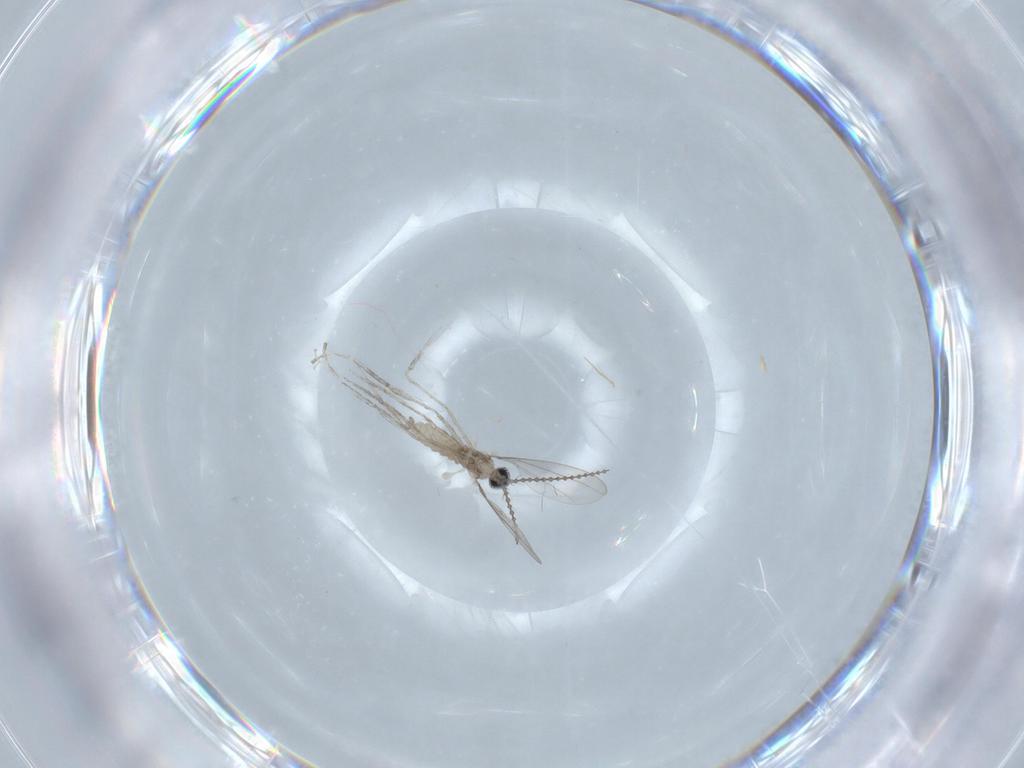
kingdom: Animalia
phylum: Arthropoda
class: Insecta
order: Diptera
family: Cecidomyiidae
